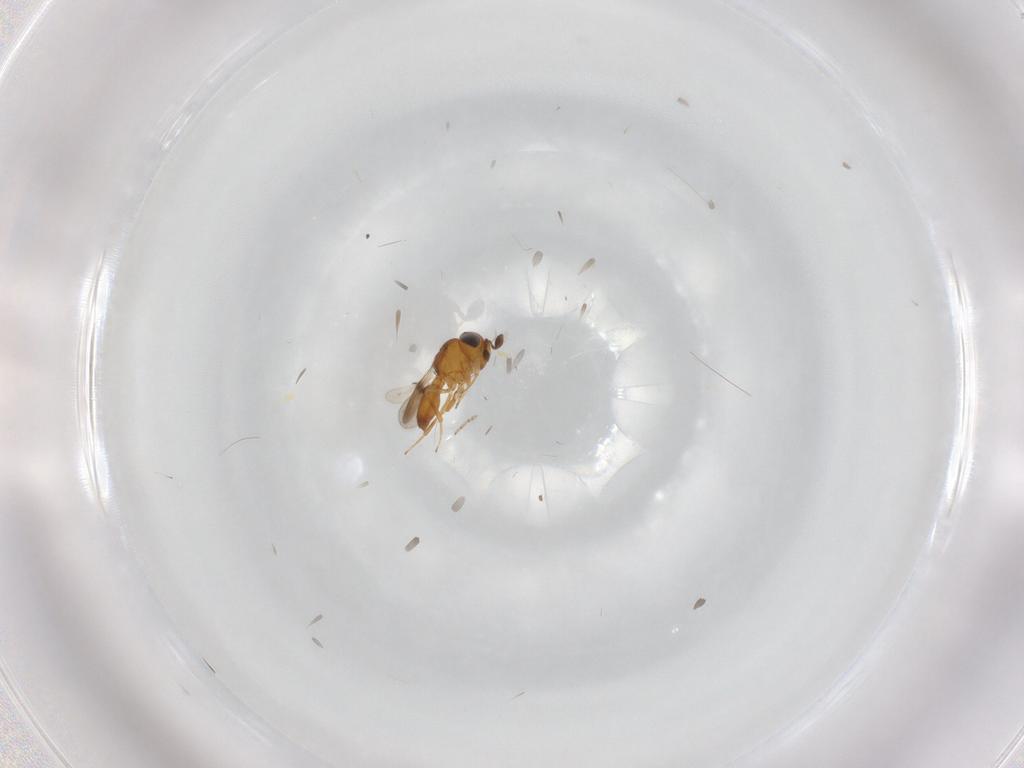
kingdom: Animalia
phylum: Arthropoda
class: Insecta
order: Hymenoptera
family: Scelionidae
